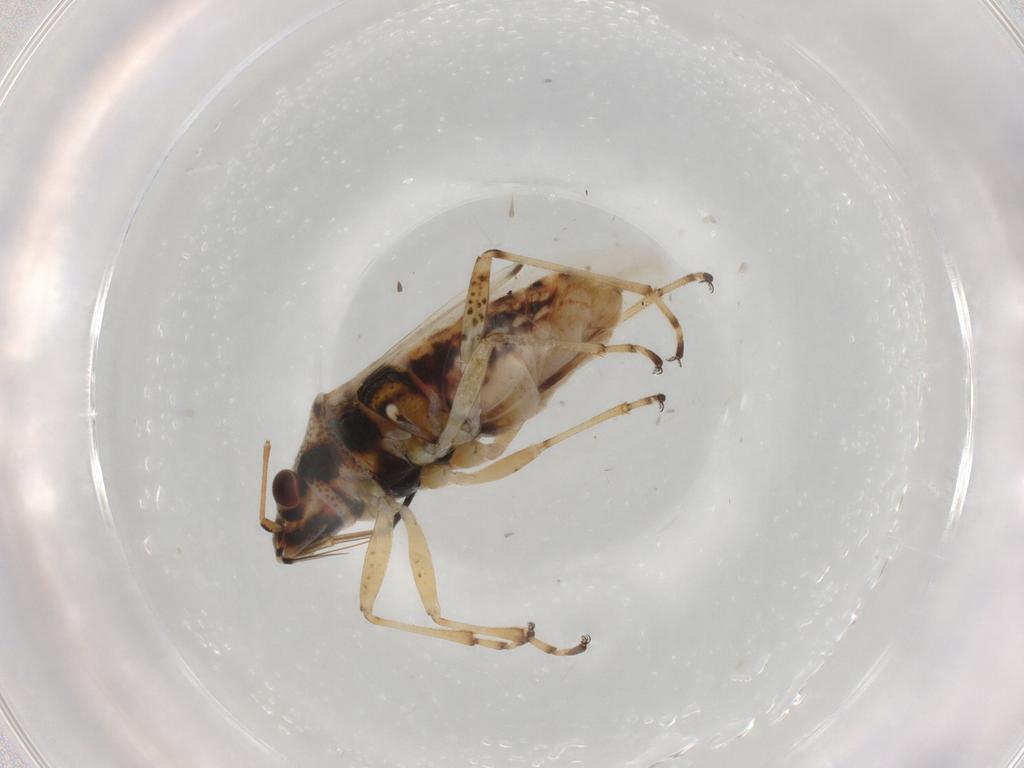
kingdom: Animalia
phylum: Arthropoda
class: Insecta
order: Hemiptera
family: Lygaeidae
